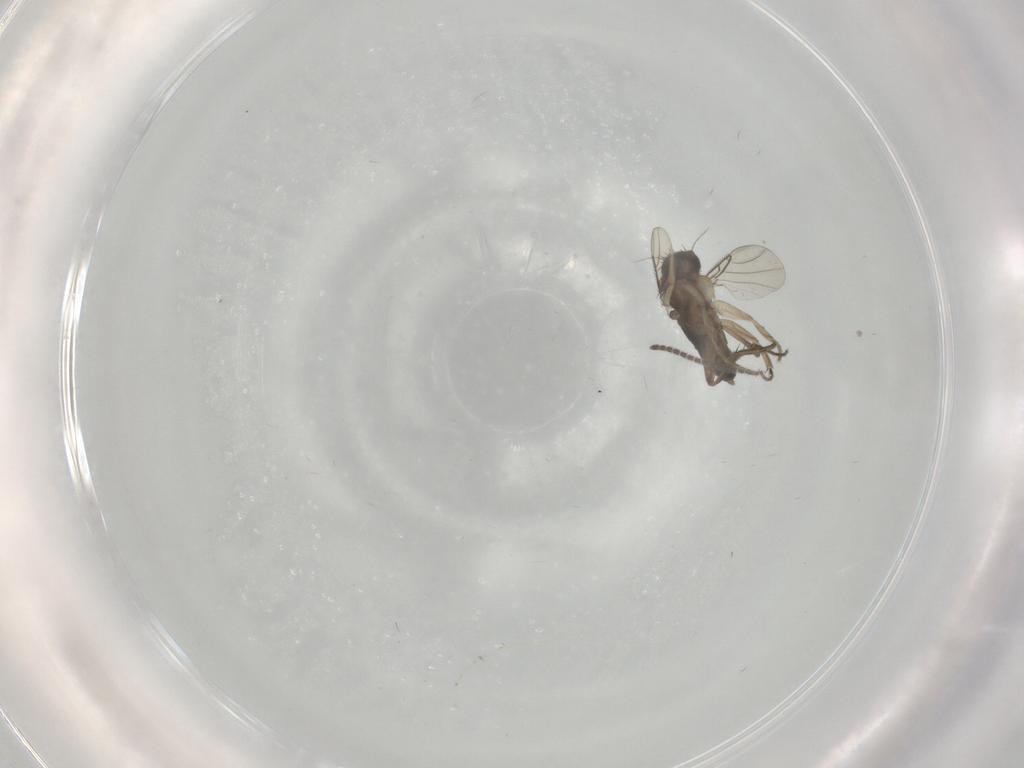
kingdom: Animalia
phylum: Arthropoda
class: Insecta
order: Diptera
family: Sciaridae
